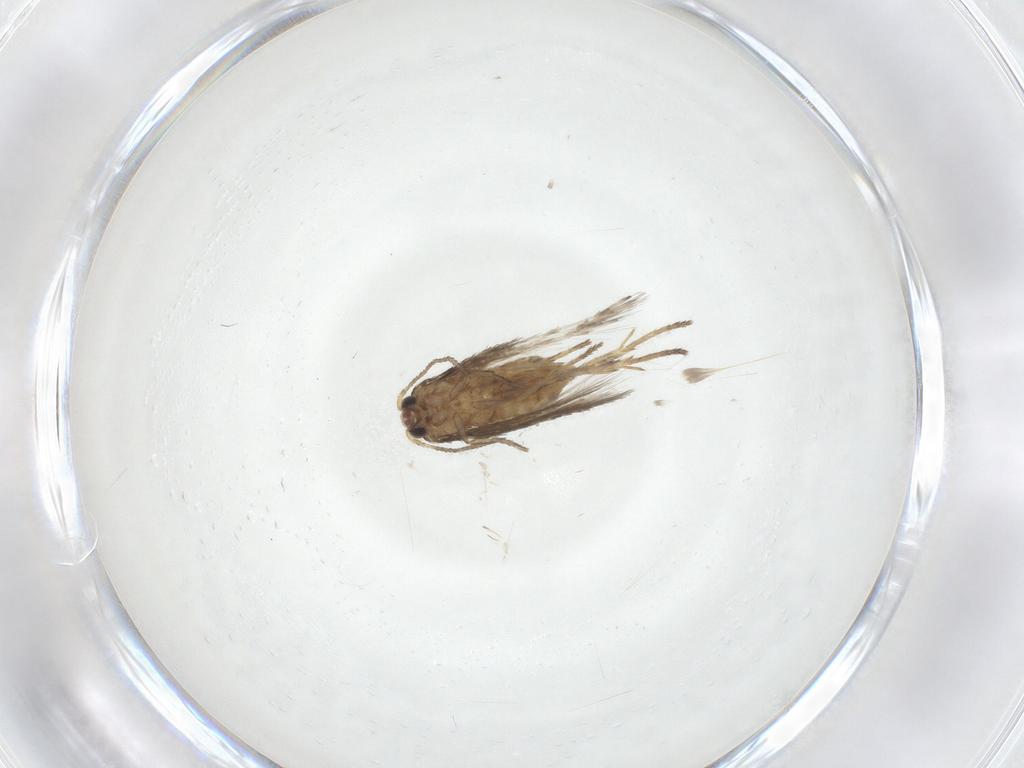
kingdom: Animalia
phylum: Arthropoda
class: Insecta
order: Lepidoptera
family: Nepticulidae
